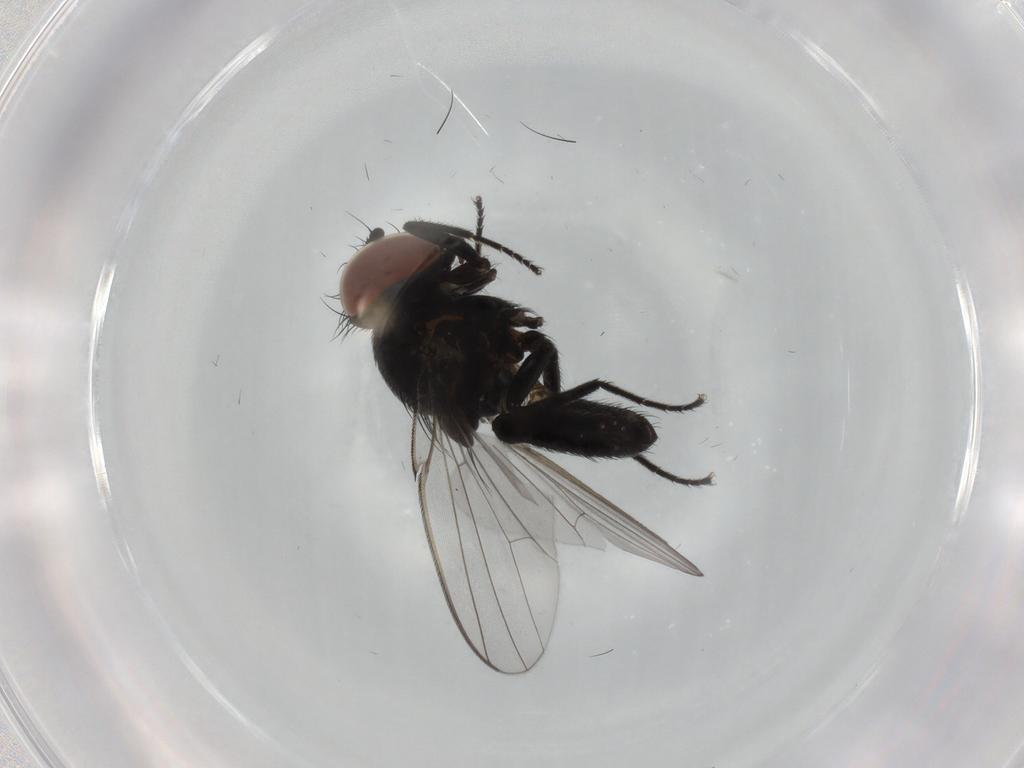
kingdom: Animalia
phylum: Arthropoda
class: Insecta
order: Diptera
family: Milichiidae
